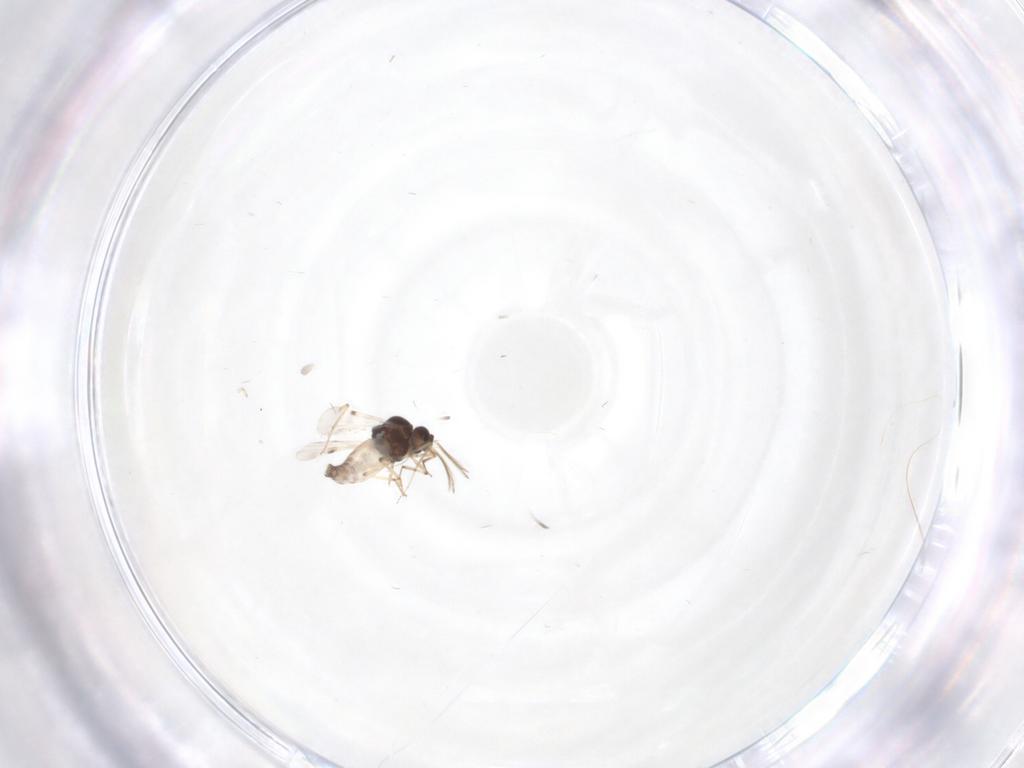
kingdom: Animalia
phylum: Arthropoda
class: Insecta
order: Diptera
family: Hybotidae
